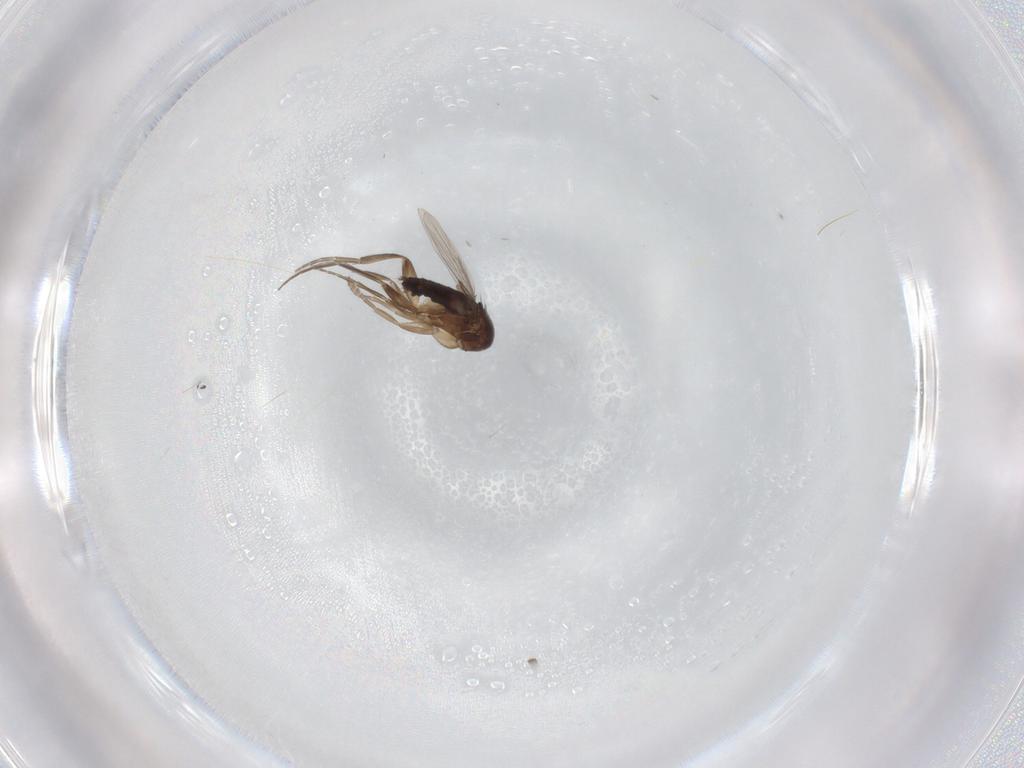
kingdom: Animalia
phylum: Arthropoda
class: Insecta
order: Diptera
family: Phoridae
